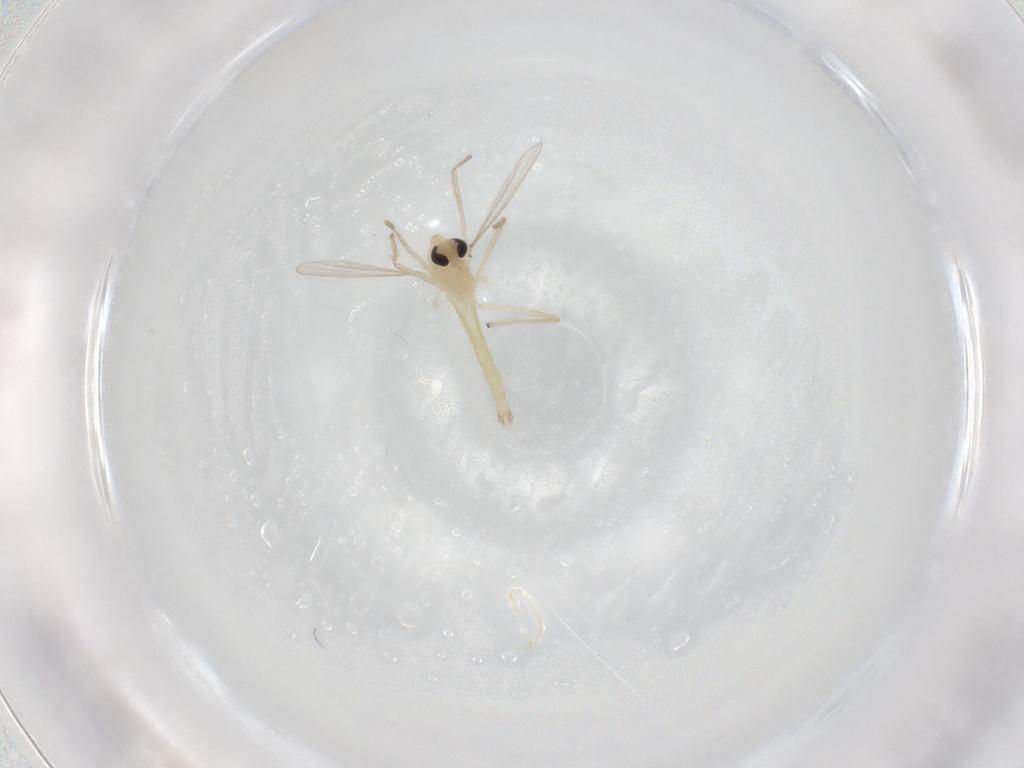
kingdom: Animalia
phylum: Arthropoda
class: Insecta
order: Diptera
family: Chironomidae
